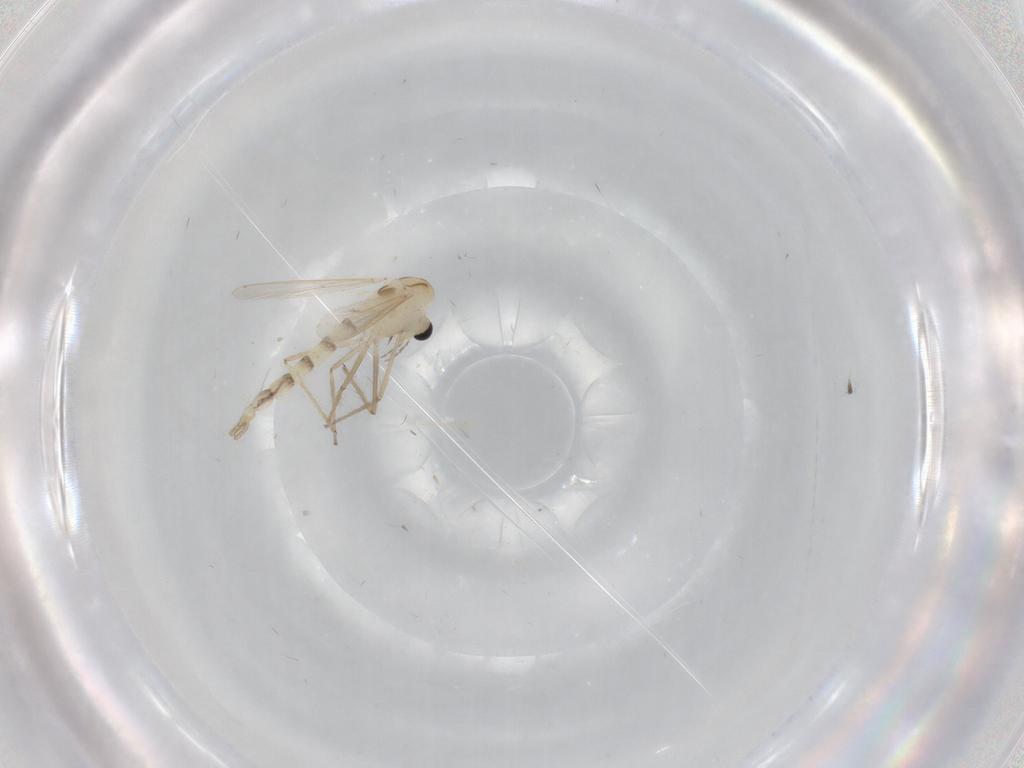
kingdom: Animalia
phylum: Arthropoda
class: Insecta
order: Diptera
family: Chironomidae
